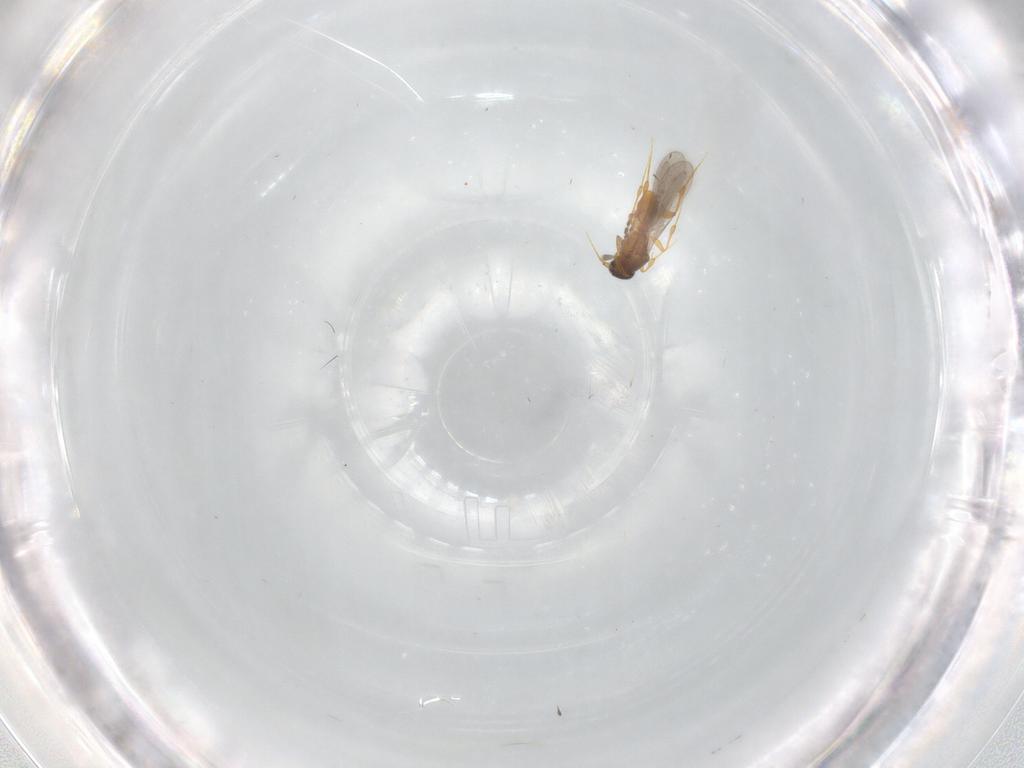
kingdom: Animalia
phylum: Arthropoda
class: Insecta
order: Hymenoptera
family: Platygastridae
